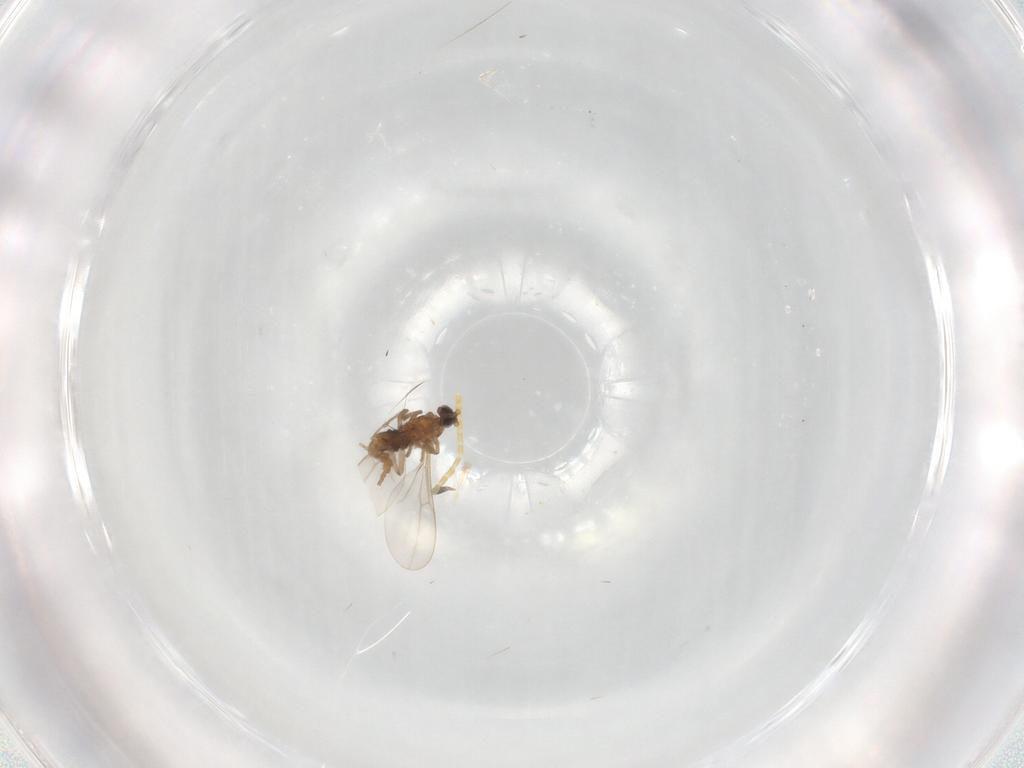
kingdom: Animalia
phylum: Arthropoda
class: Insecta
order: Diptera
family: Cecidomyiidae
